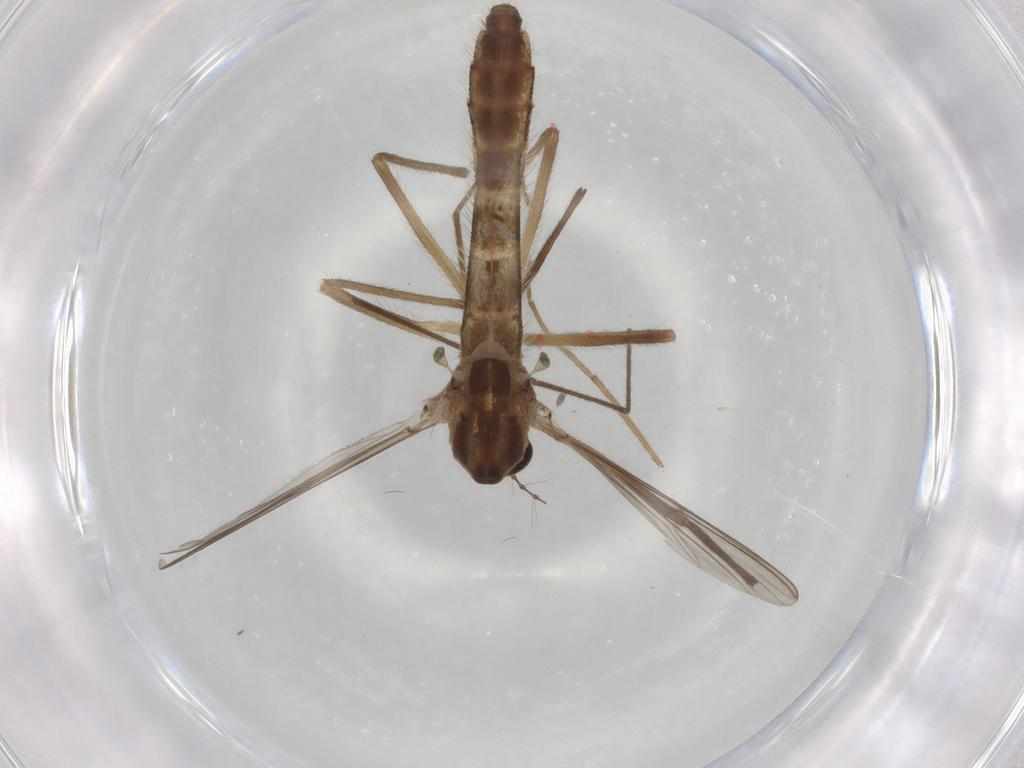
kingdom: Animalia
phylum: Arthropoda
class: Insecta
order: Diptera
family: Chironomidae
